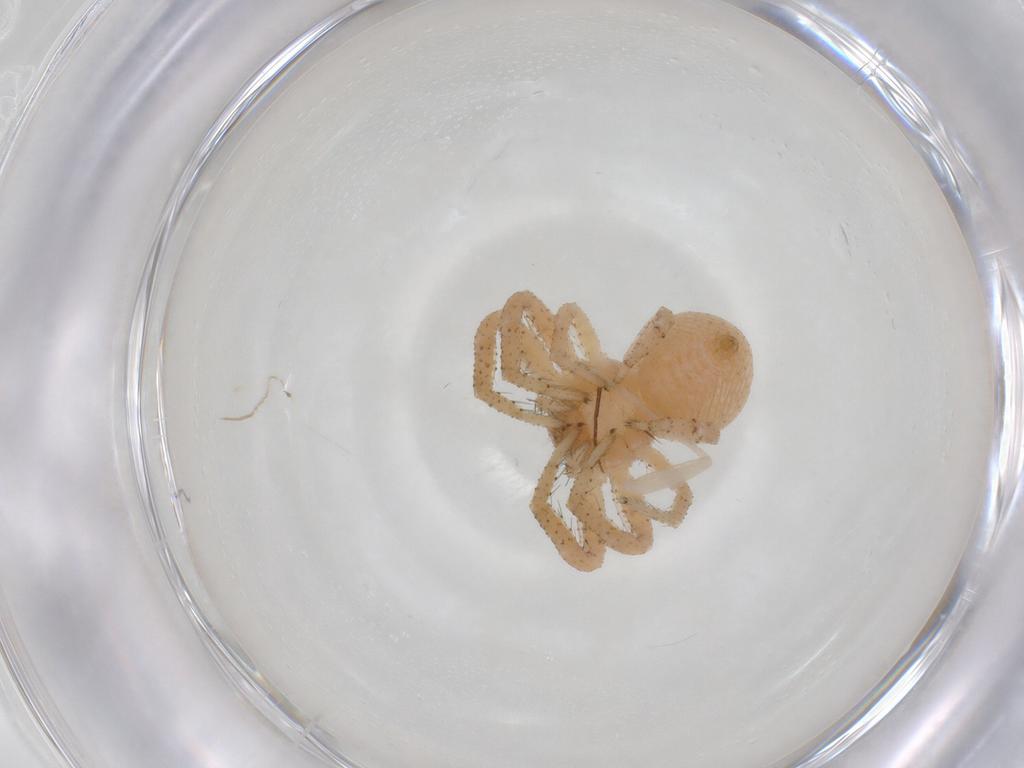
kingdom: Animalia
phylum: Arthropoda
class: Arachnida
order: Araneae
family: Thomisidae
